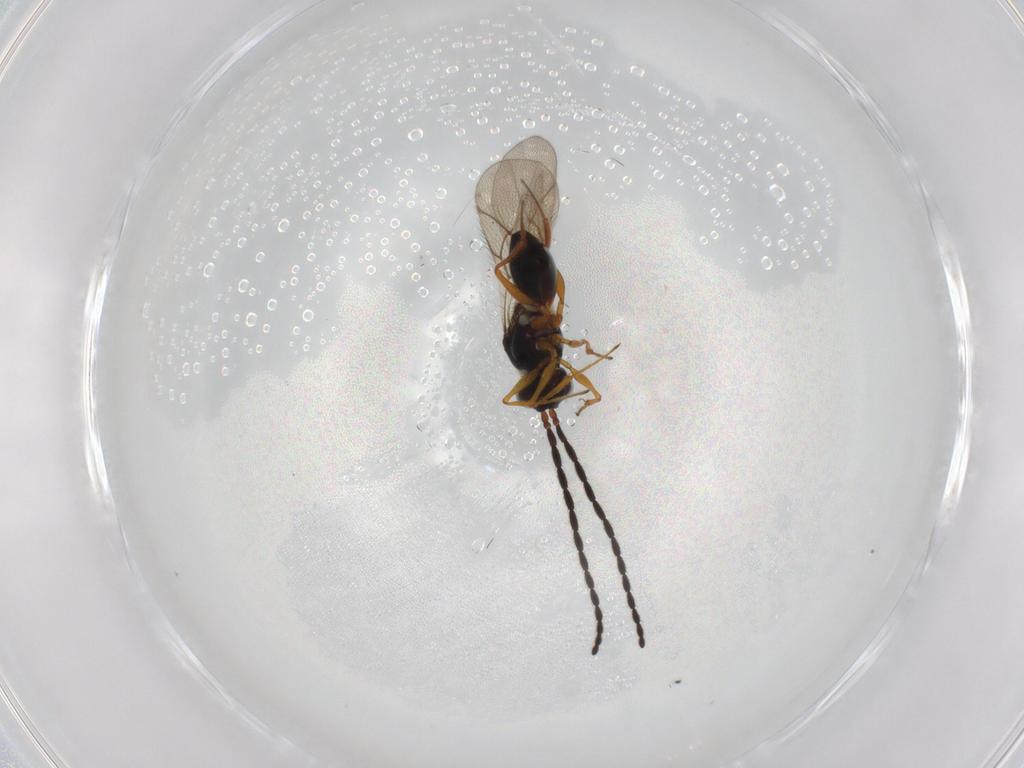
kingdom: Animalia
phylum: Arthropoda
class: Insecta
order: Hymenoptera
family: Figitidae
